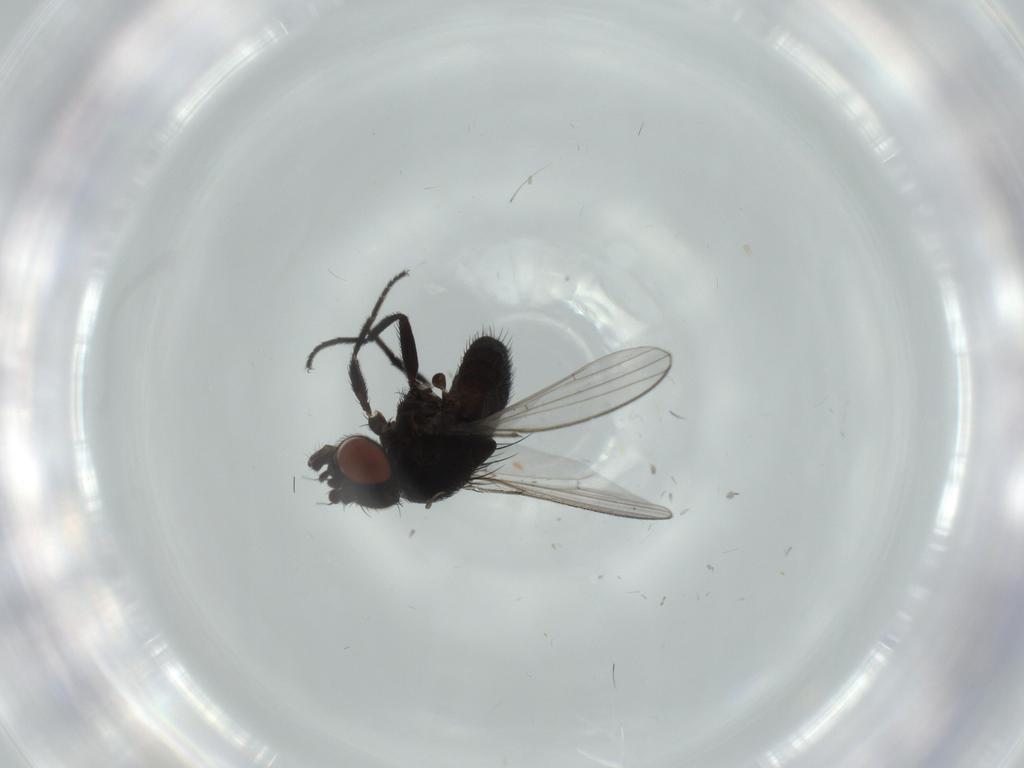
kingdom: Animalia
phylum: Arthropoda
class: Insecta
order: Diptera
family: Milichiidae
